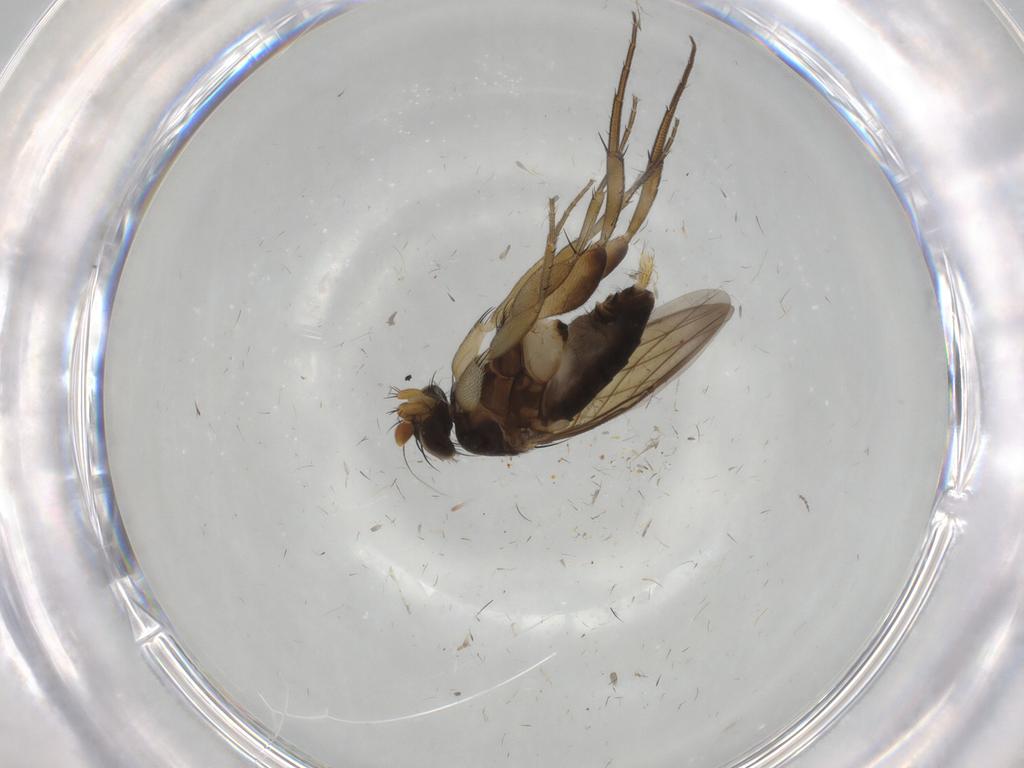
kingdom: Animalia
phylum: Arthropoda
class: Insecta
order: Diptera
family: Phoridae
